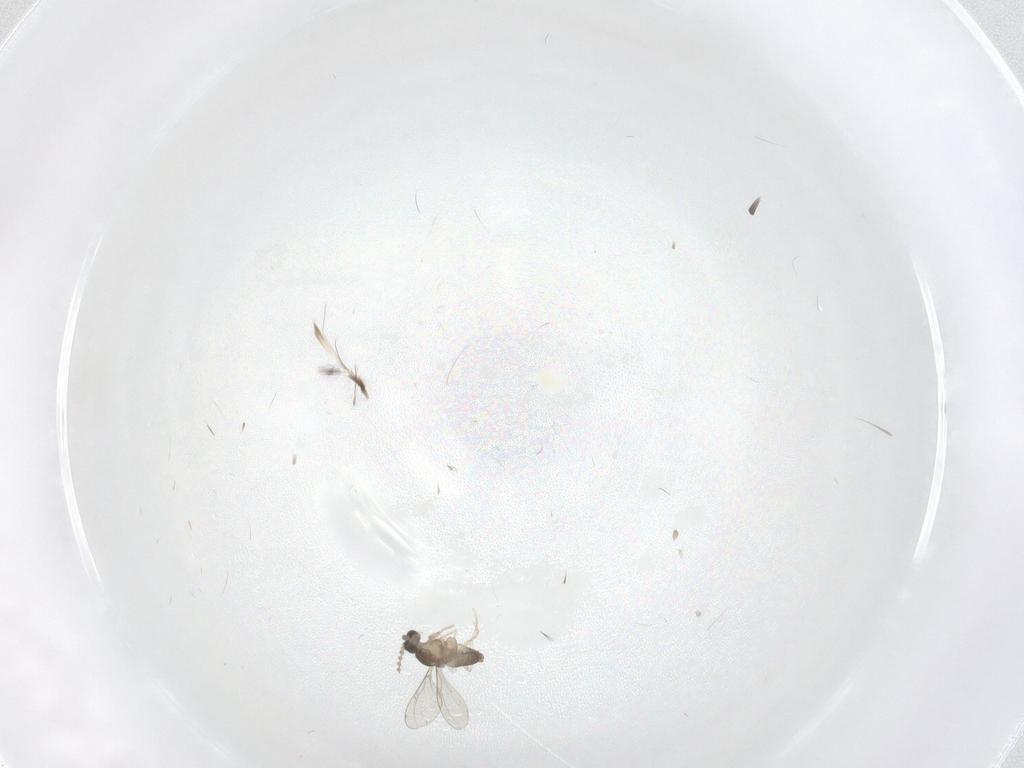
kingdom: Animalia
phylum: Arthropoda
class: Insecta
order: Diptera
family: Cecidomyiidae
